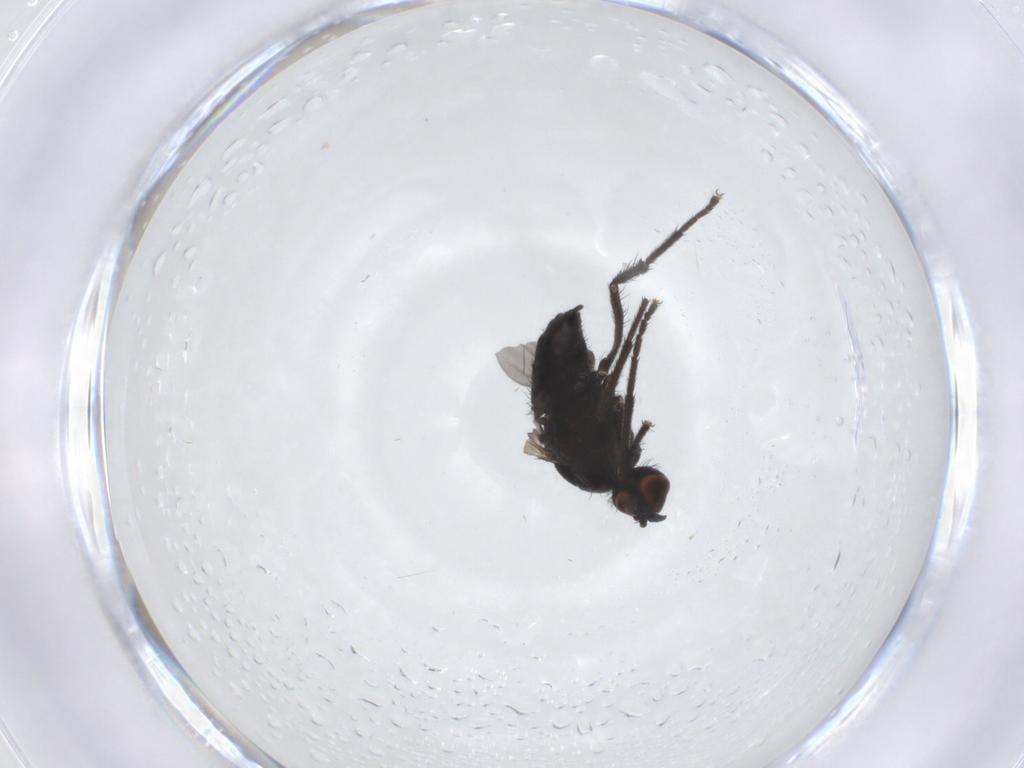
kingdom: Animalia
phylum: Arthropoda
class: Insecta
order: Diptera
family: Empididae
